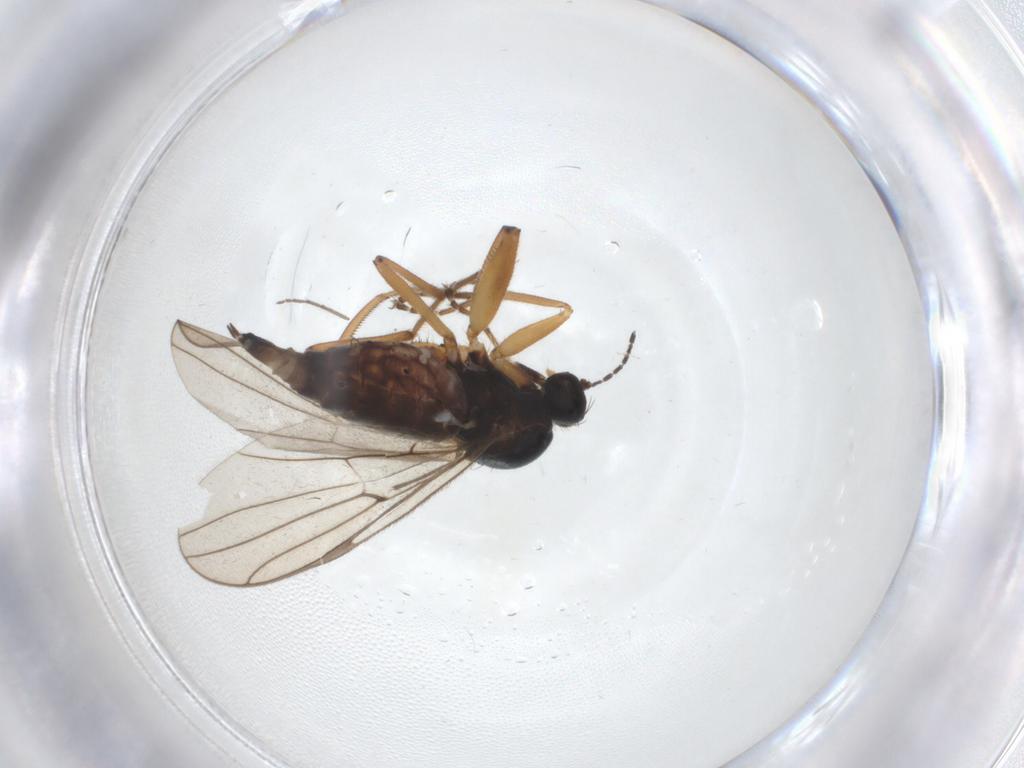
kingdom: Animalia
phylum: Arthropoda
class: Insecta
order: Diptera
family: Hybotidae
